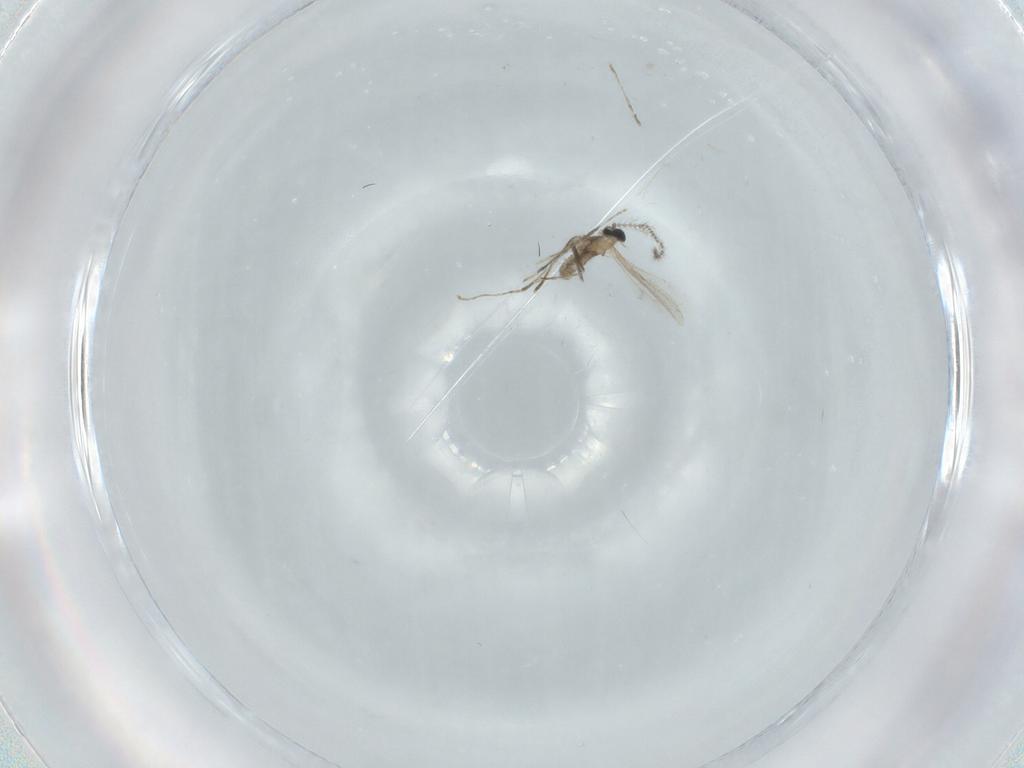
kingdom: Animalia
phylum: Arthropoda
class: Insecta
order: Diptera
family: Cecidomyiidae
